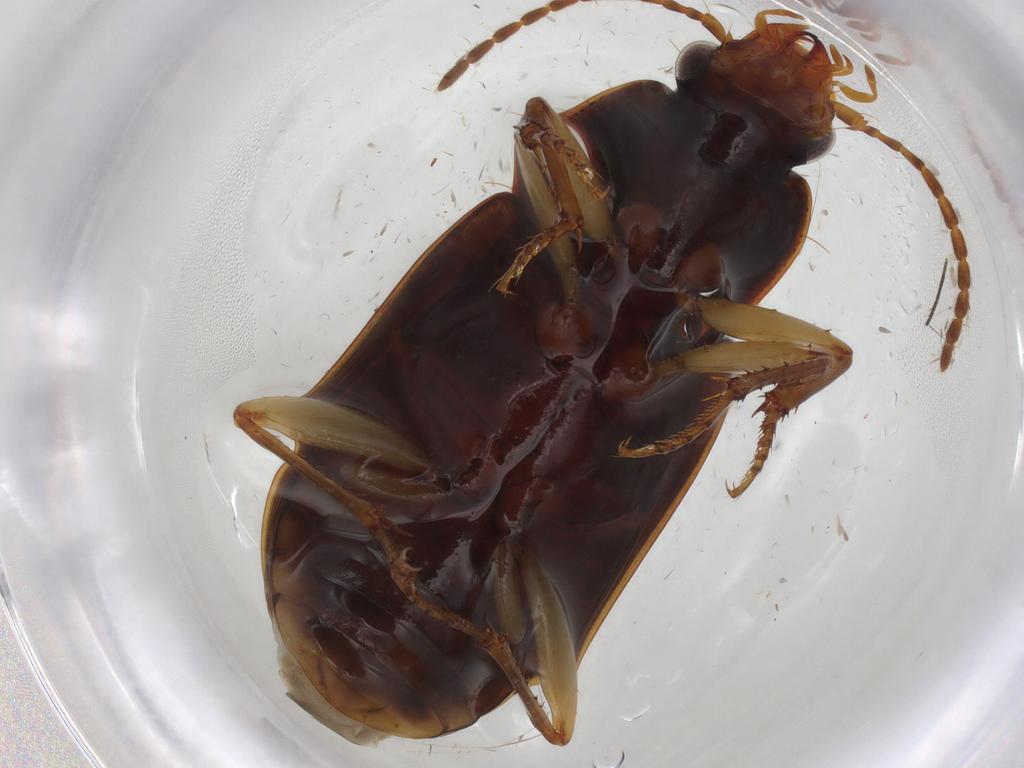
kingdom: Animalia
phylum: Arthropoda
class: Insecta
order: Coleoptera
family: Carabidae
